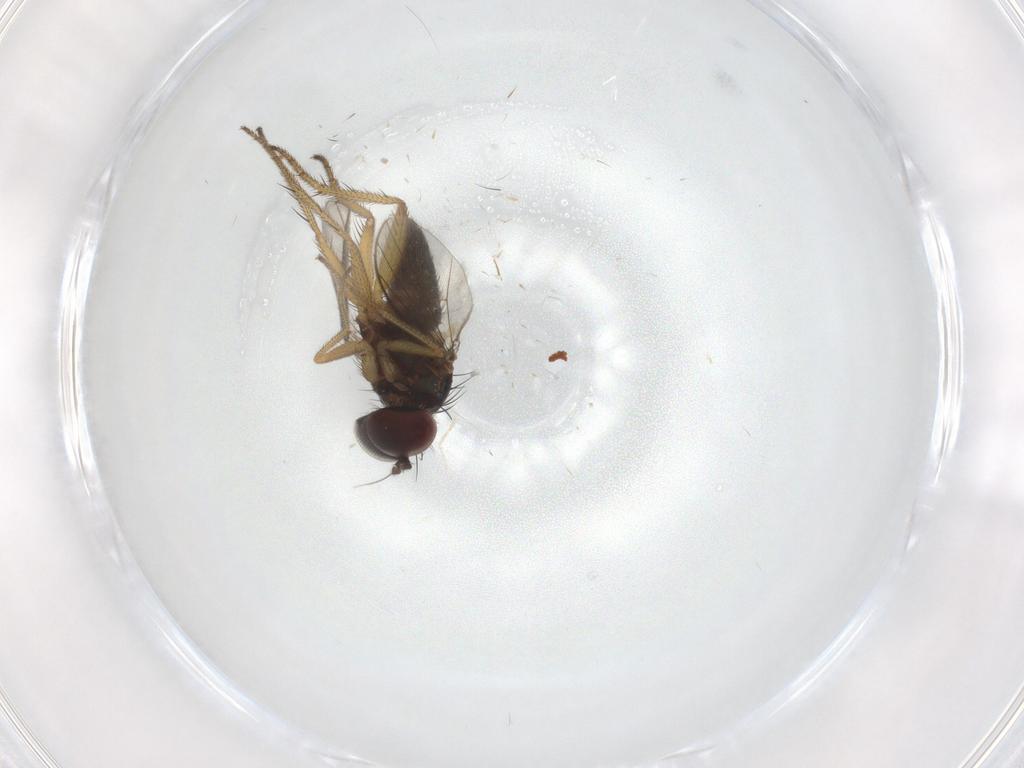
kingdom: Animalia
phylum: Arthropoda
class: Insecta
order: Diptera
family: Dolichopodidae
